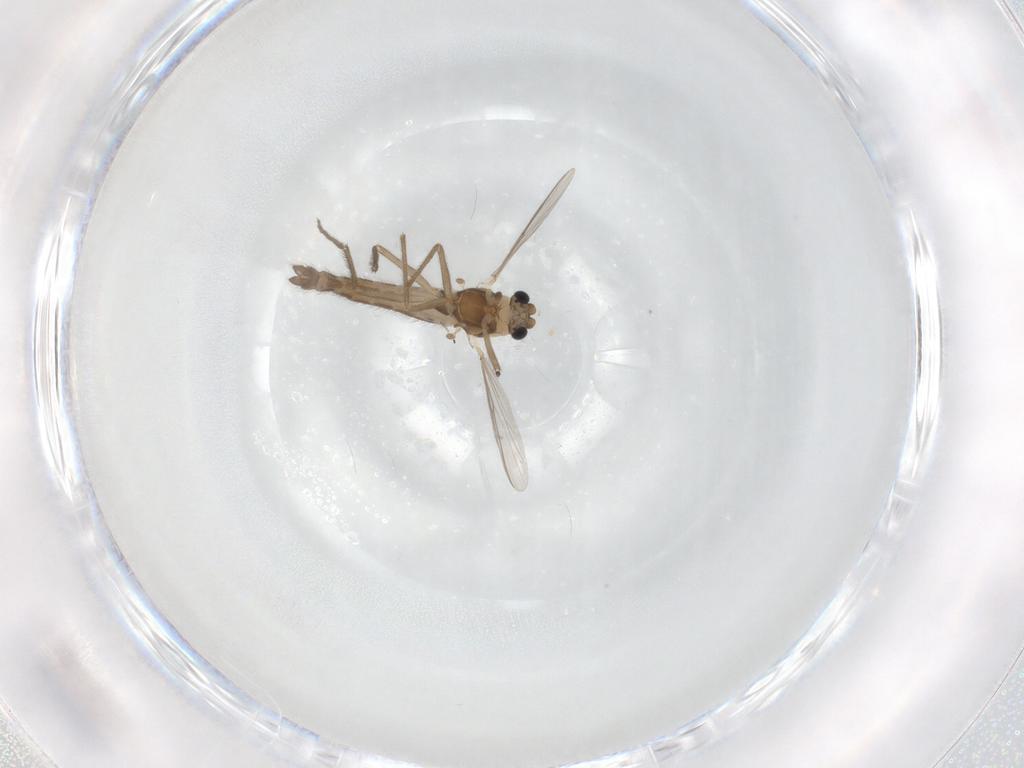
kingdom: Animalia
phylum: Arthropoda
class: Insecta
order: Diptera
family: Chironomidae
